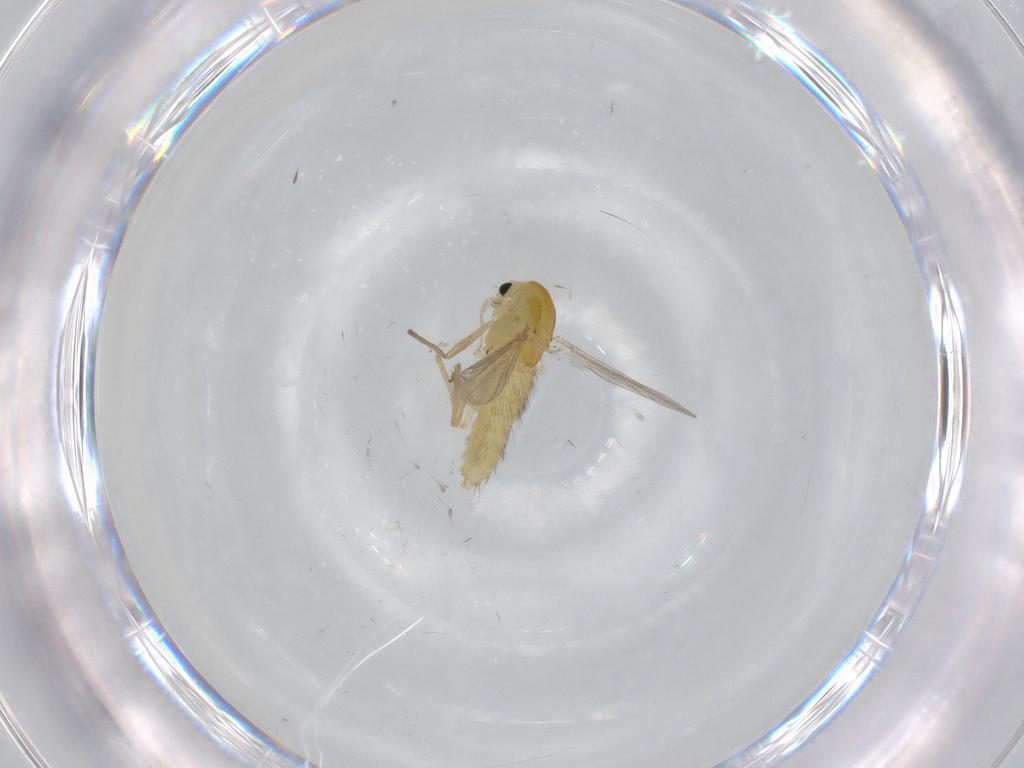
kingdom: Animalia
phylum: Arthropoda
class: Insecta
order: Diptera
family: Chironomidae
